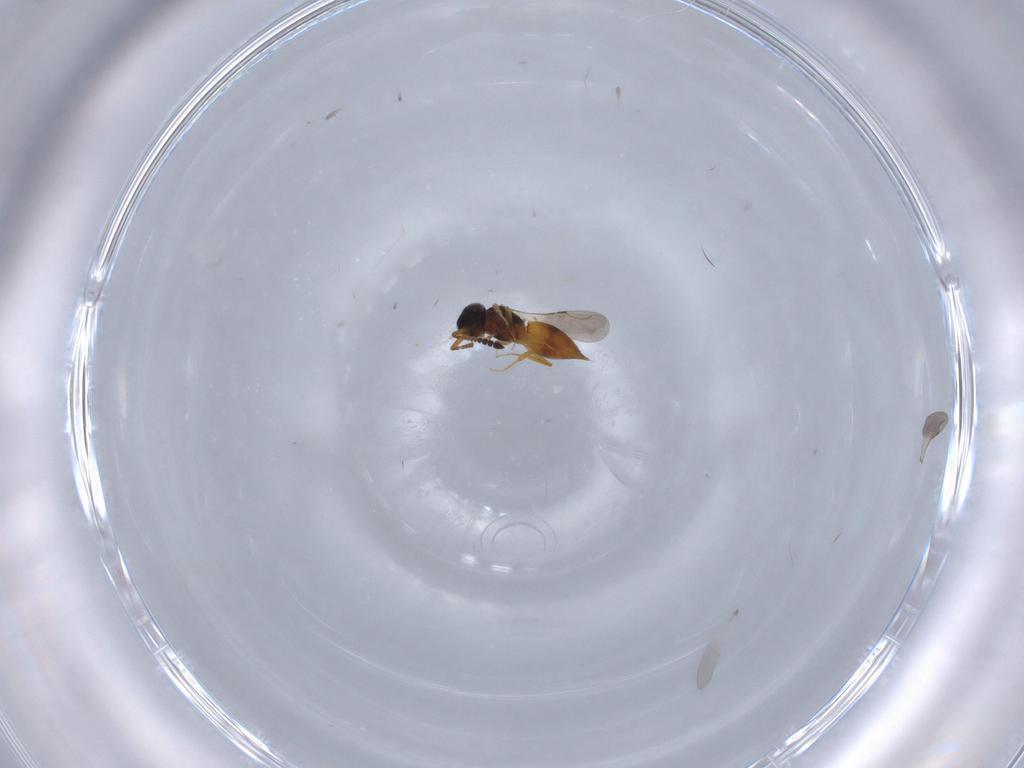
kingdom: Animalia
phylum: Arthropoda
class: Insecta
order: Hymenoptera
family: Ceraphronidae
